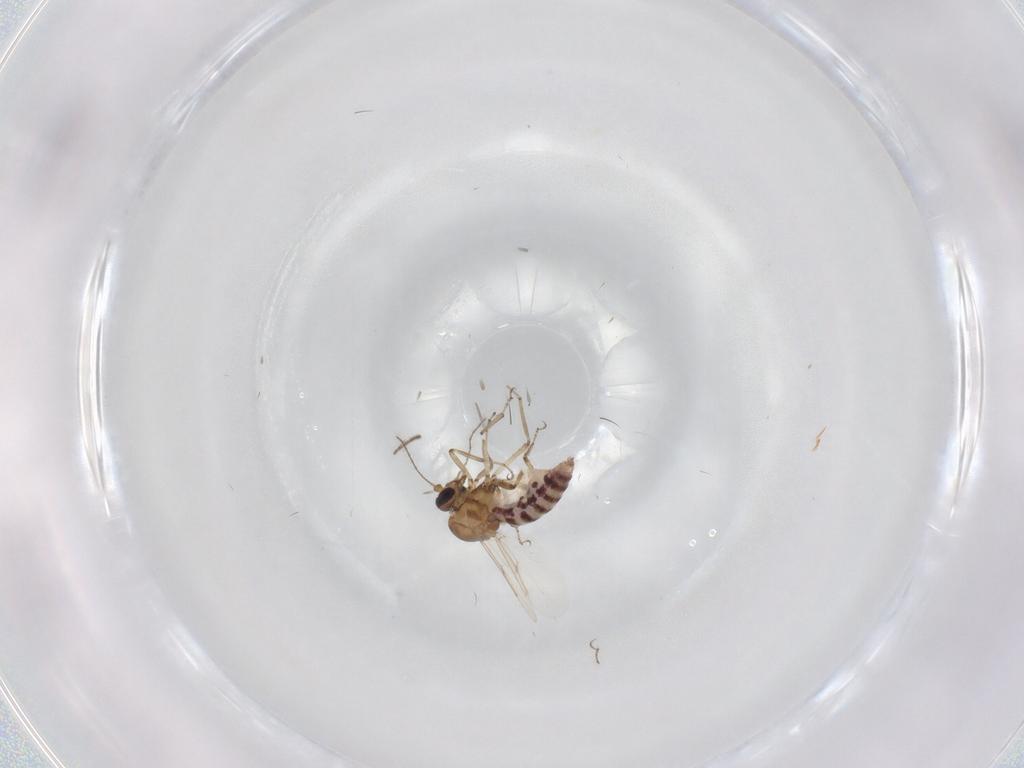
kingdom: Animalia
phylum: Arthropoda
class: Insecta
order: Diptera
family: Ceratopogonidae
